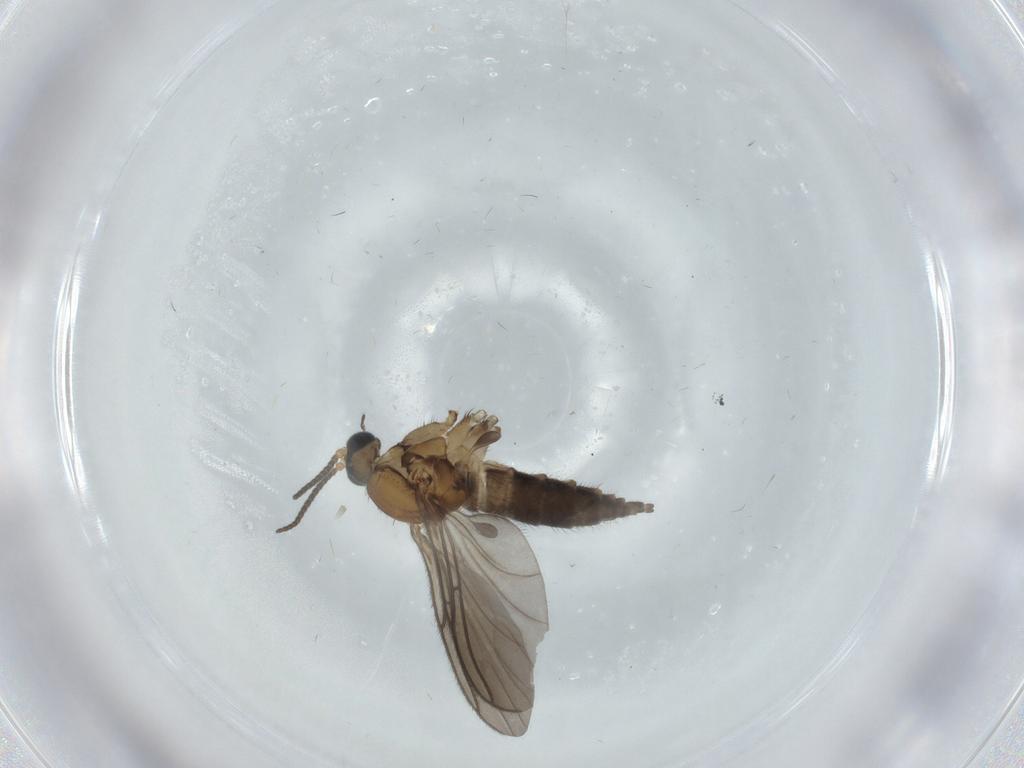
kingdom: Animalia
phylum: Arthropoda
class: Insecta
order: Diptera
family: Sciaridae
